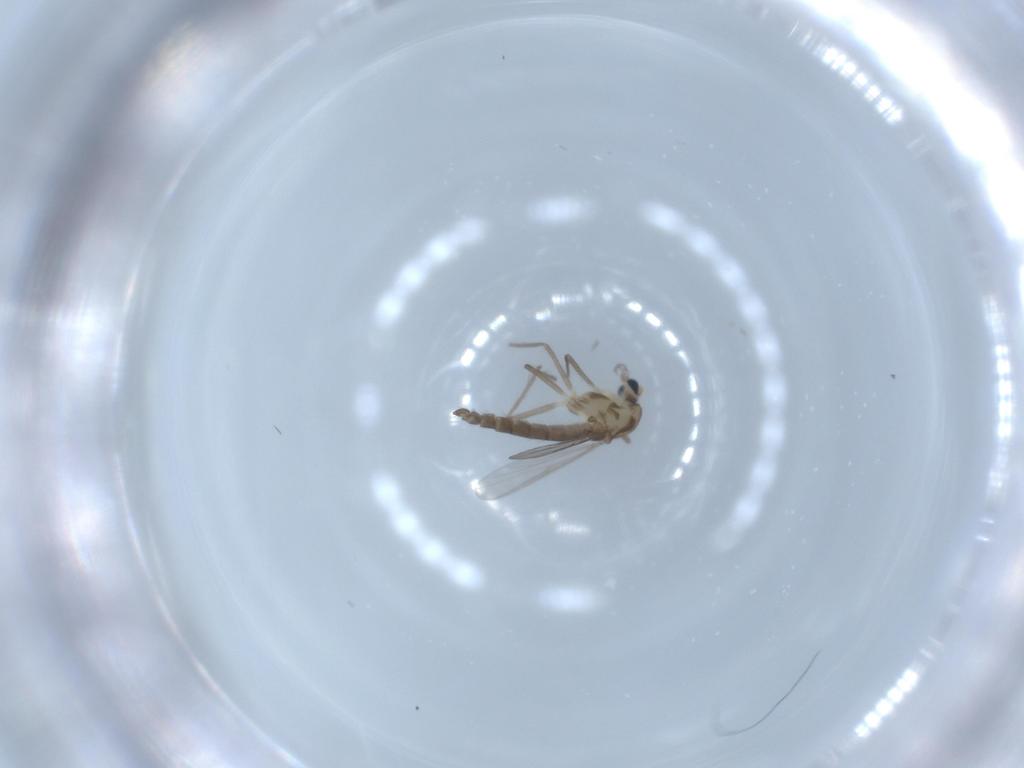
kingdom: Animalia
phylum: Arthropoda
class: Insecta
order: Diptera
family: Chironomidae
